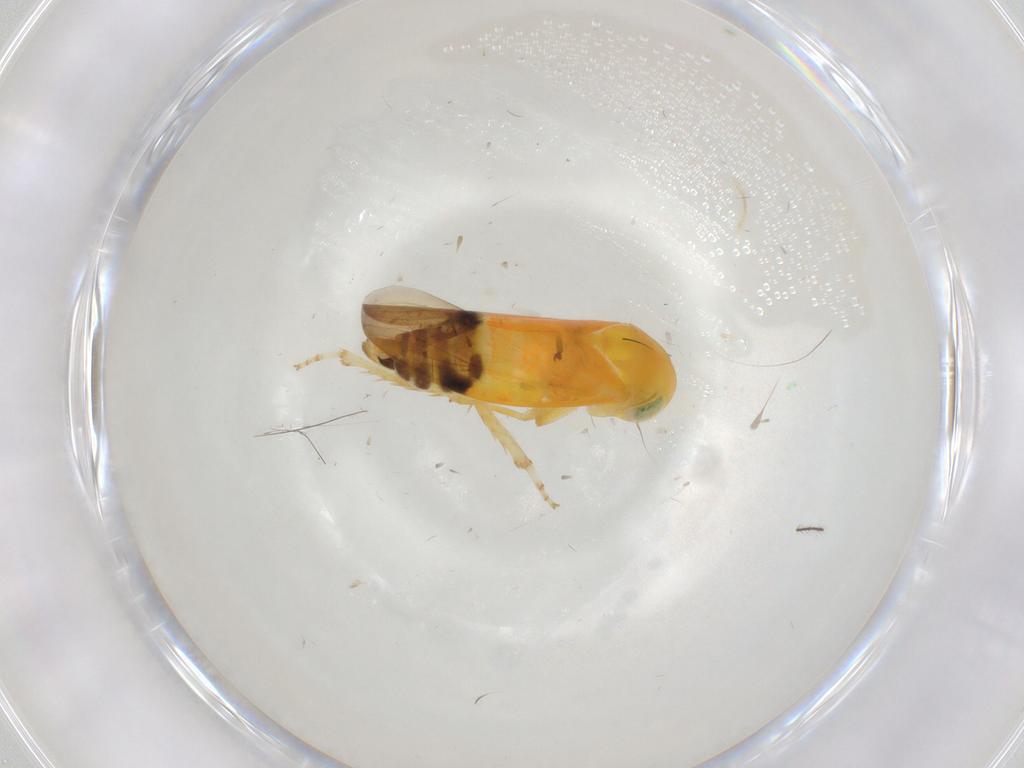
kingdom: Animalia
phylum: Arthropoda
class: Insecta
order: Hemiptera
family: Cicadellidae
